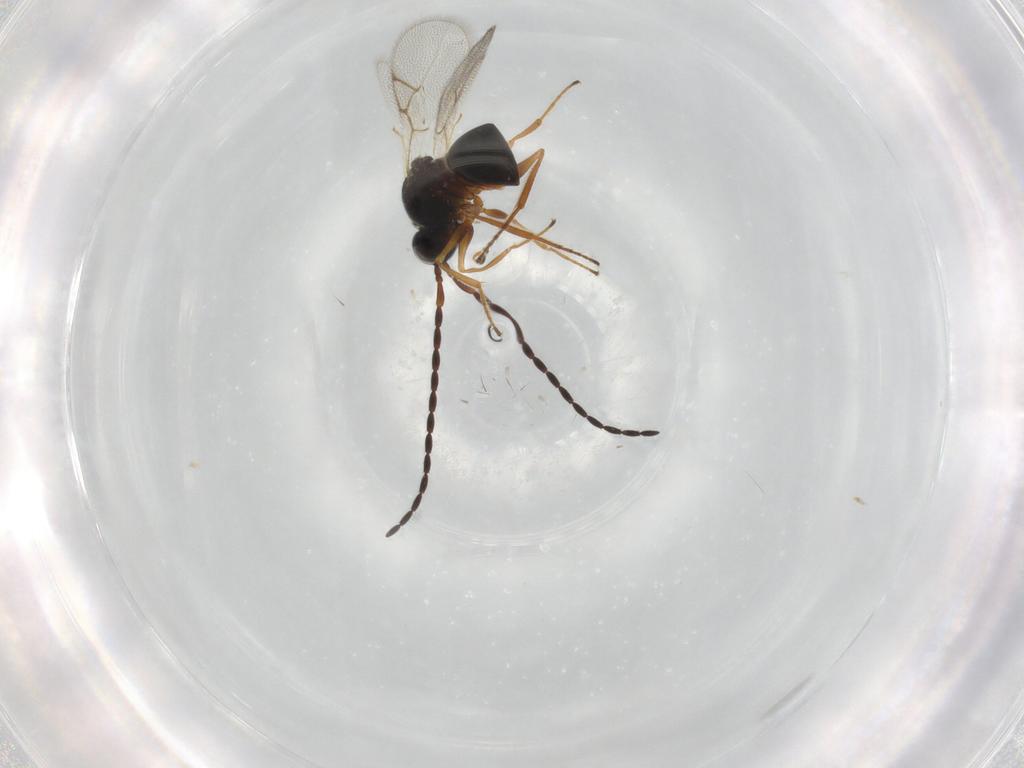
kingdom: Animalia
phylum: Arthropoda
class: Insecta
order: Hymenoptera
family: Figitidae
